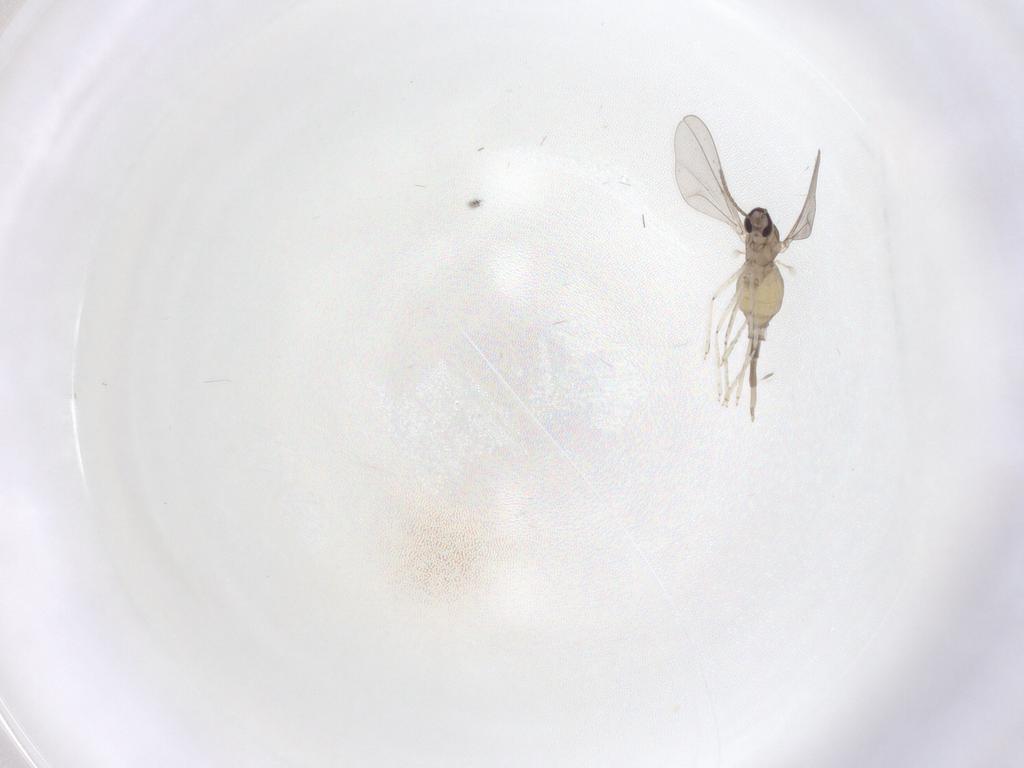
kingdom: Animalia
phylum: Arthropoda
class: Insecta
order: Diptera
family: Cecidomyiidae
